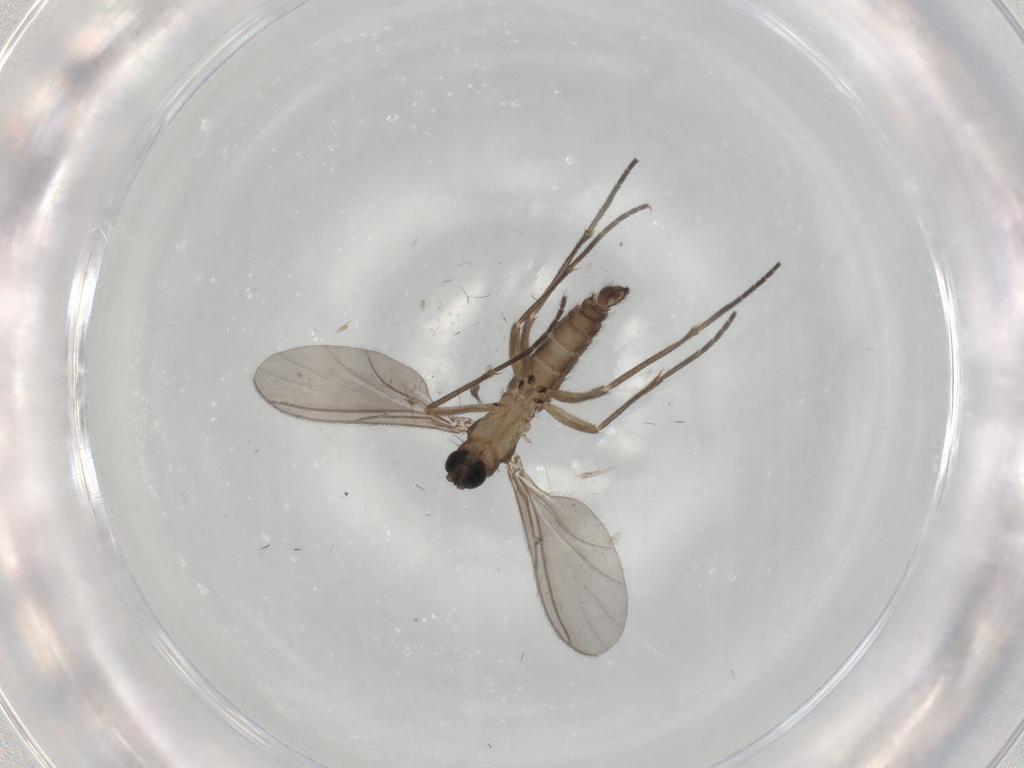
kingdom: Animalia
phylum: Arthropoda
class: Insecta
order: Diptera
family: Sciaridae
